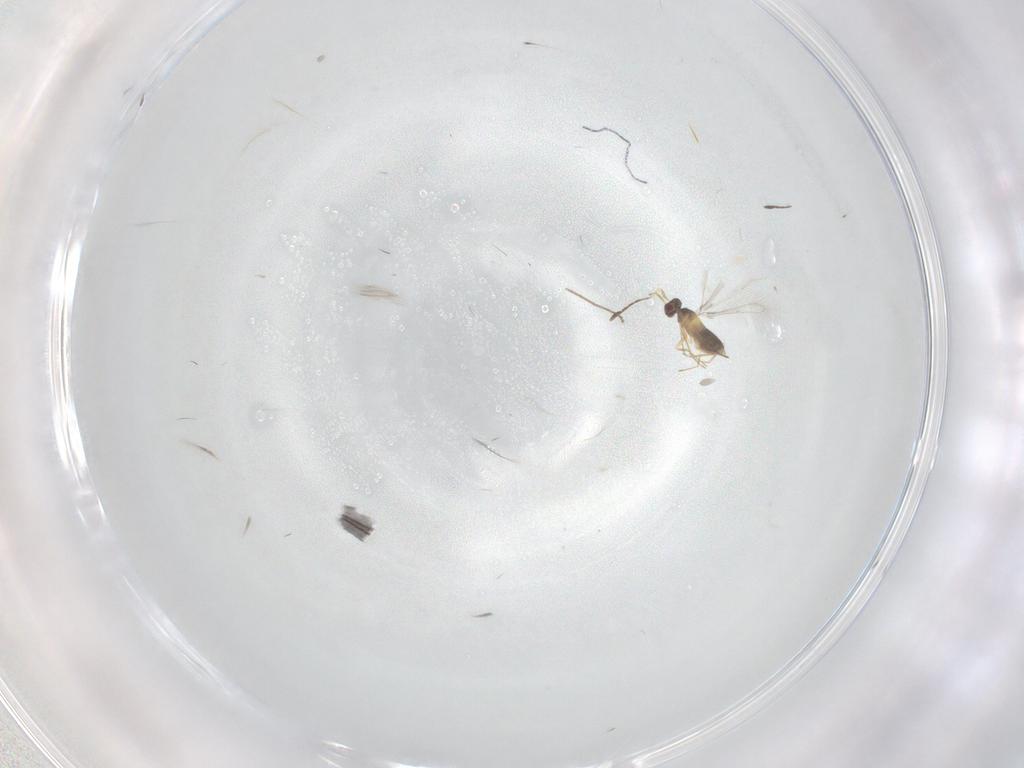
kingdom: Animalia
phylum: Arthropoda
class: Insecta
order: Hymenoptera
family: Mymaridae
